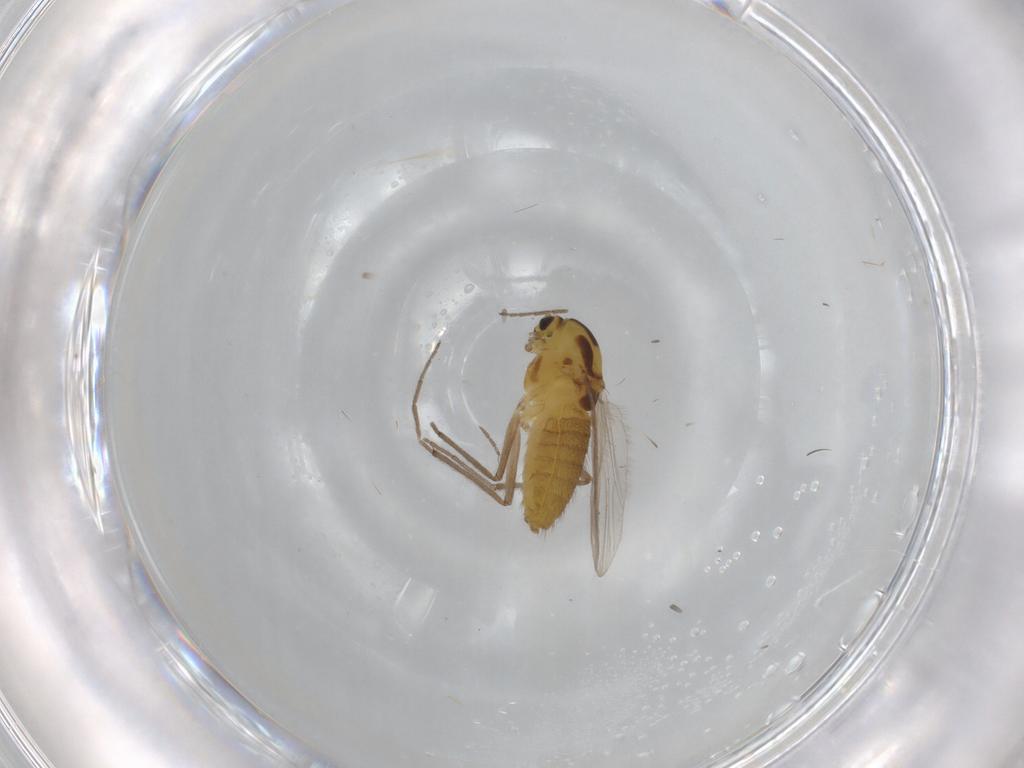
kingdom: Animalia
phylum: Arthropoda
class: Insecta
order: Diptera
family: Chironomidae
